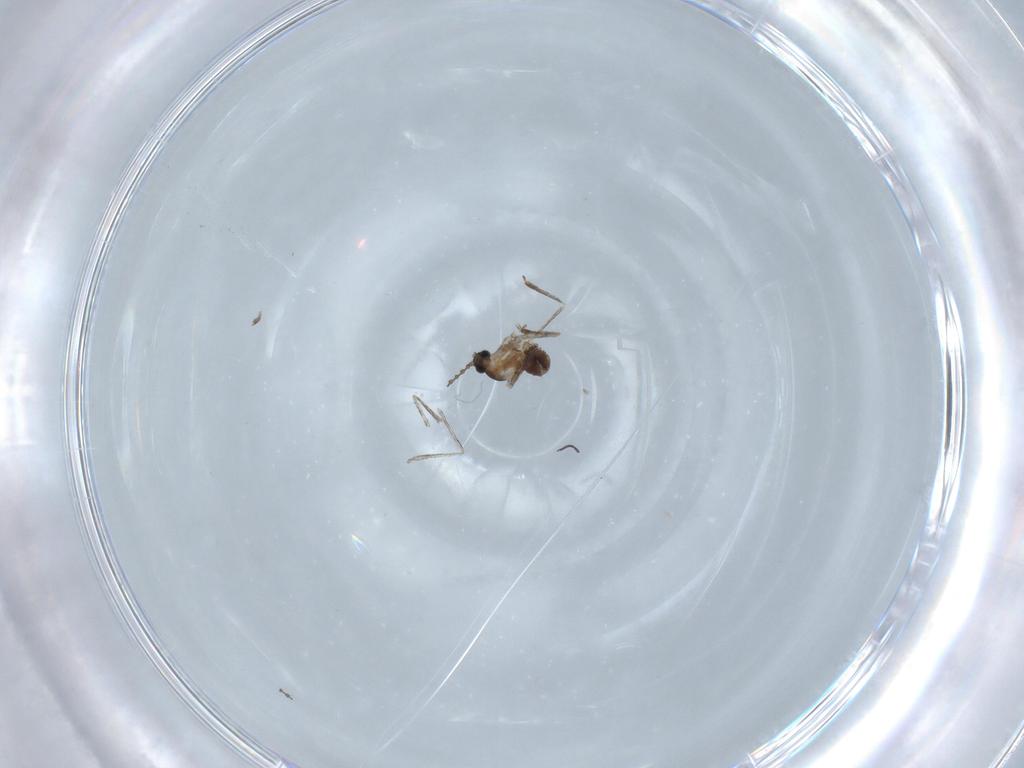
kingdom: Animalia
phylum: Arthropoda
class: Insecta
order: Diptera
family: Cecidomyiidae
